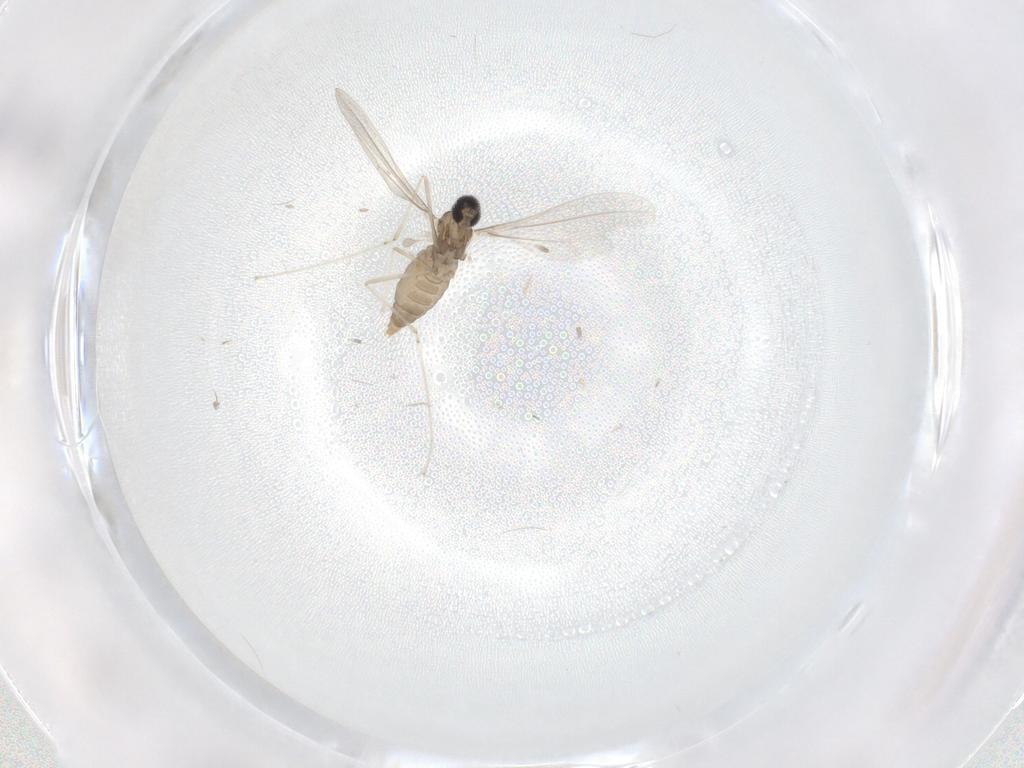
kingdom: Animalia
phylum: Arthropoda
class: Insecta
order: Diptera
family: Cecidomyiidae
